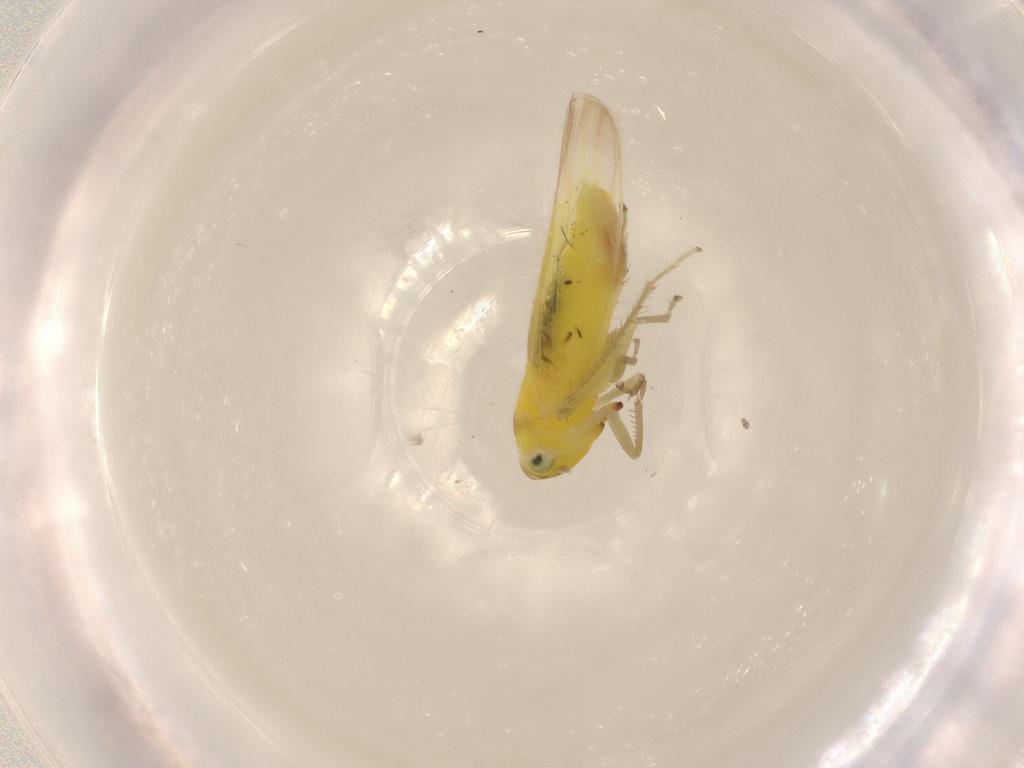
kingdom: Animalia
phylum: Arthropoda
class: Insecta
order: Hemiptera
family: Cicadellidae
